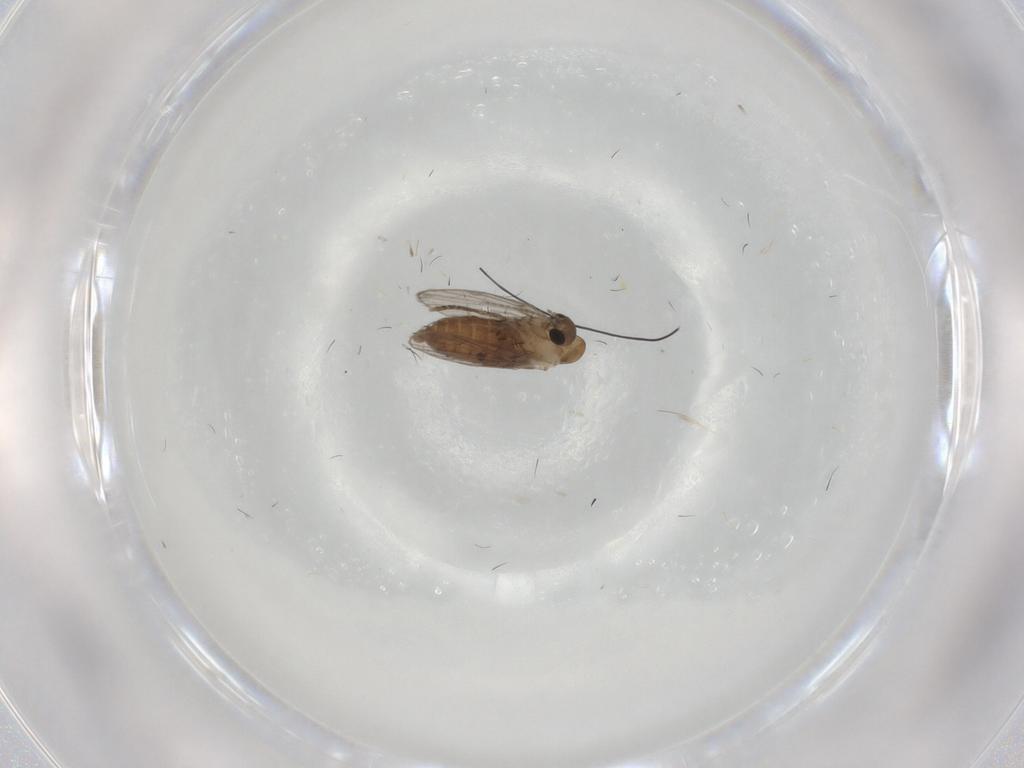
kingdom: Animalia
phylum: Arthropoda
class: Insecta
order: Diptera
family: Psychodidae
